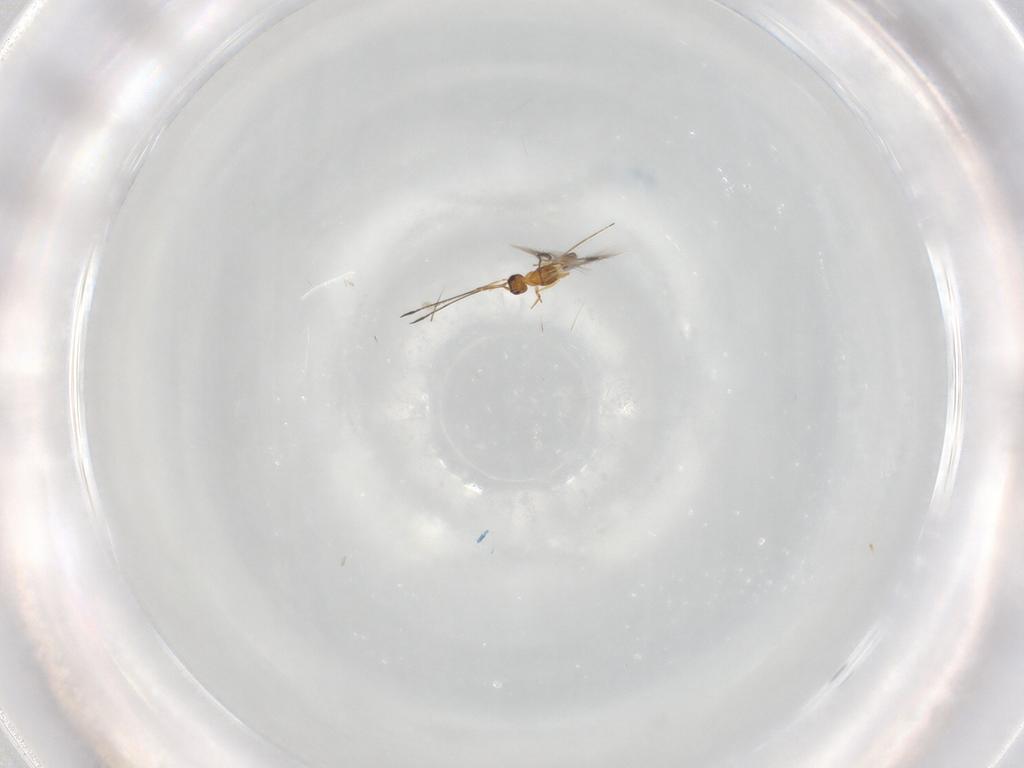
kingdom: Animalia
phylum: Arthropoda
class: Insecta
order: Hymenoptera
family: Mymaridae
